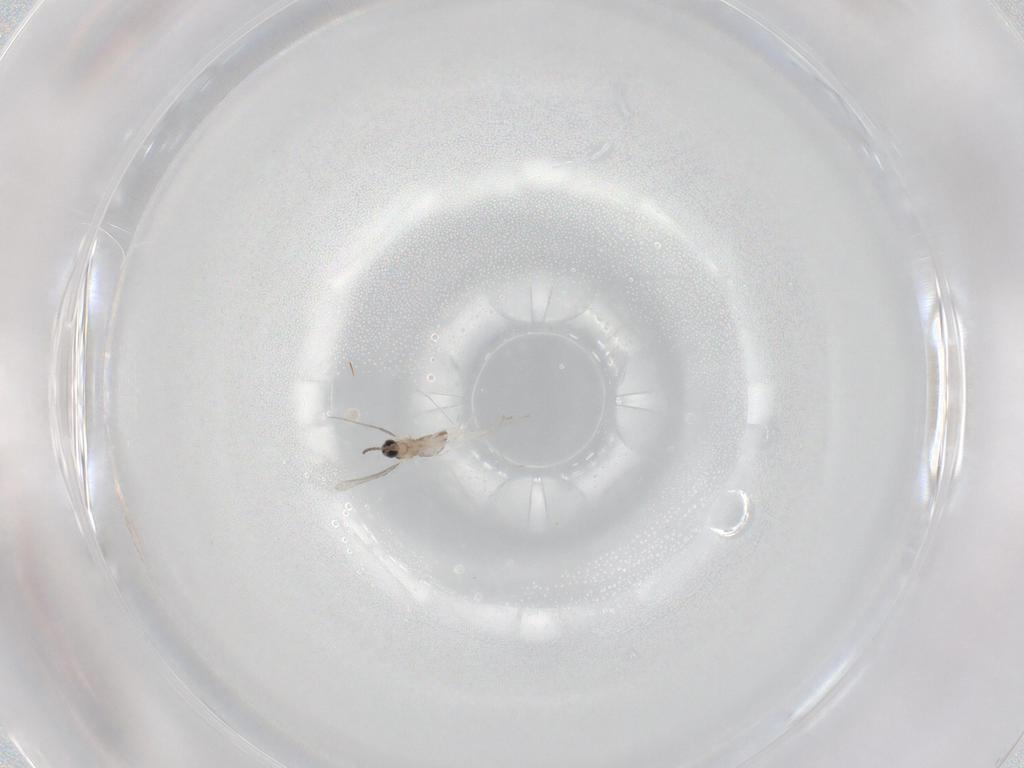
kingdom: Animalia
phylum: Arthropoda
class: Insecta
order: Diptera
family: Cecidomyiidae
